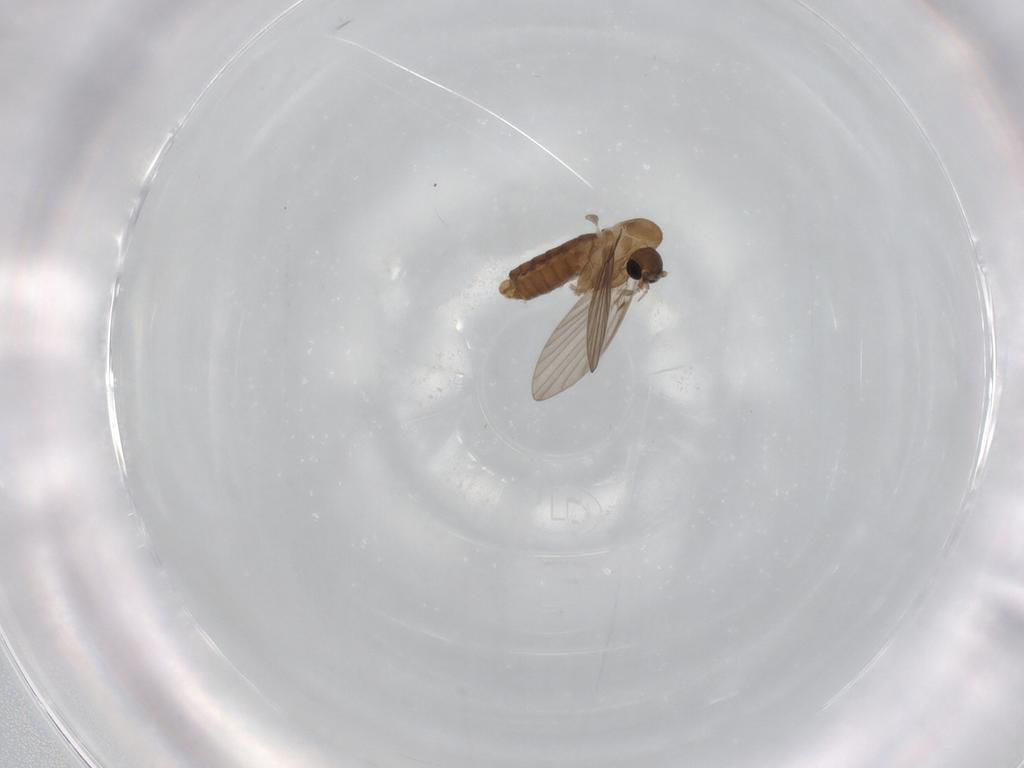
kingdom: Animalia
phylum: Arthropoda
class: Insecta
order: Diptera
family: Psychodidae
